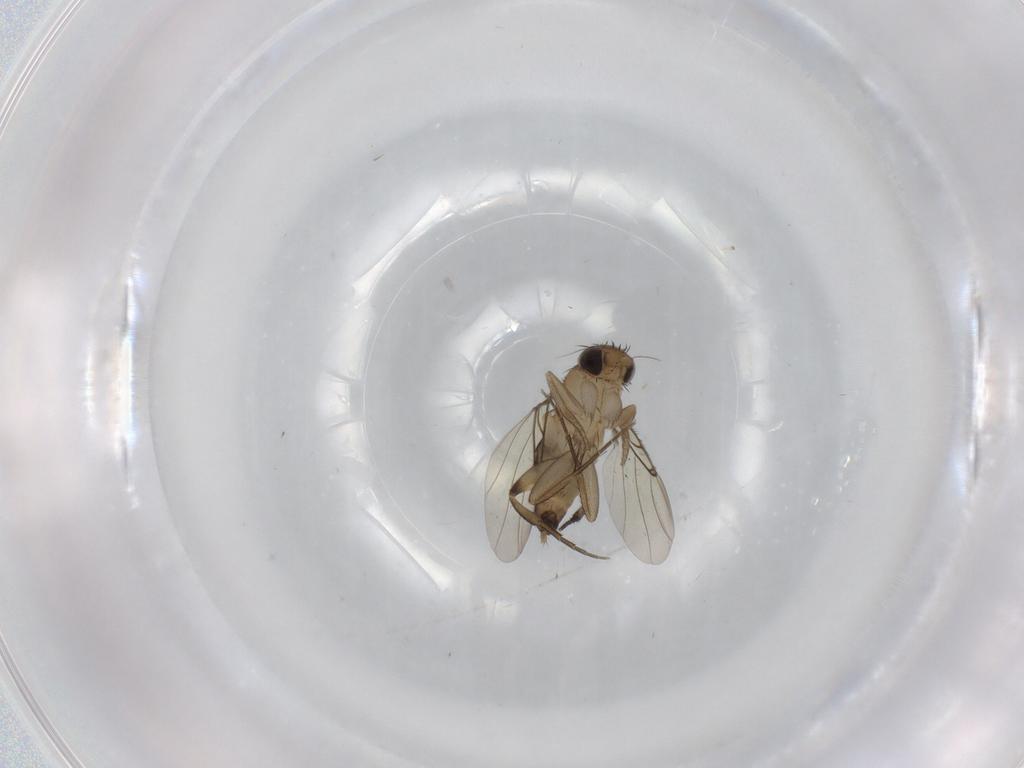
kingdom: Animalia
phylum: Arthropoda
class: Insecta
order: Diptera
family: Phoridae
